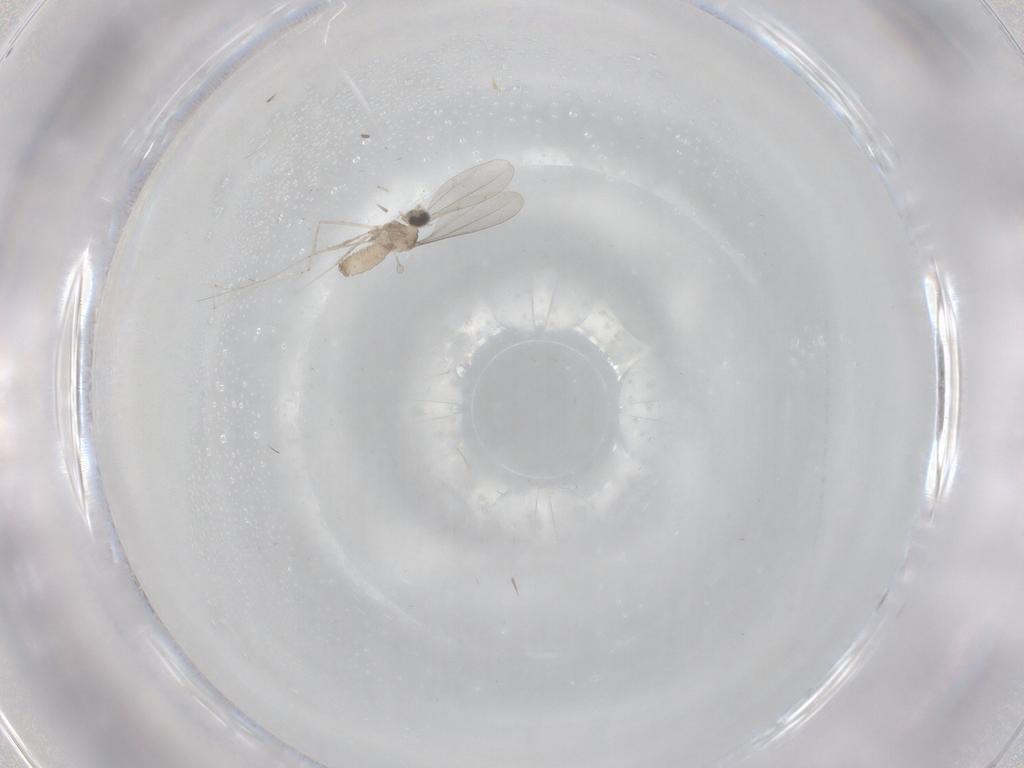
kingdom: Animalia
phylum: Arthropoda
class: Insecta
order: Diptera
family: Cecidomyiidae
